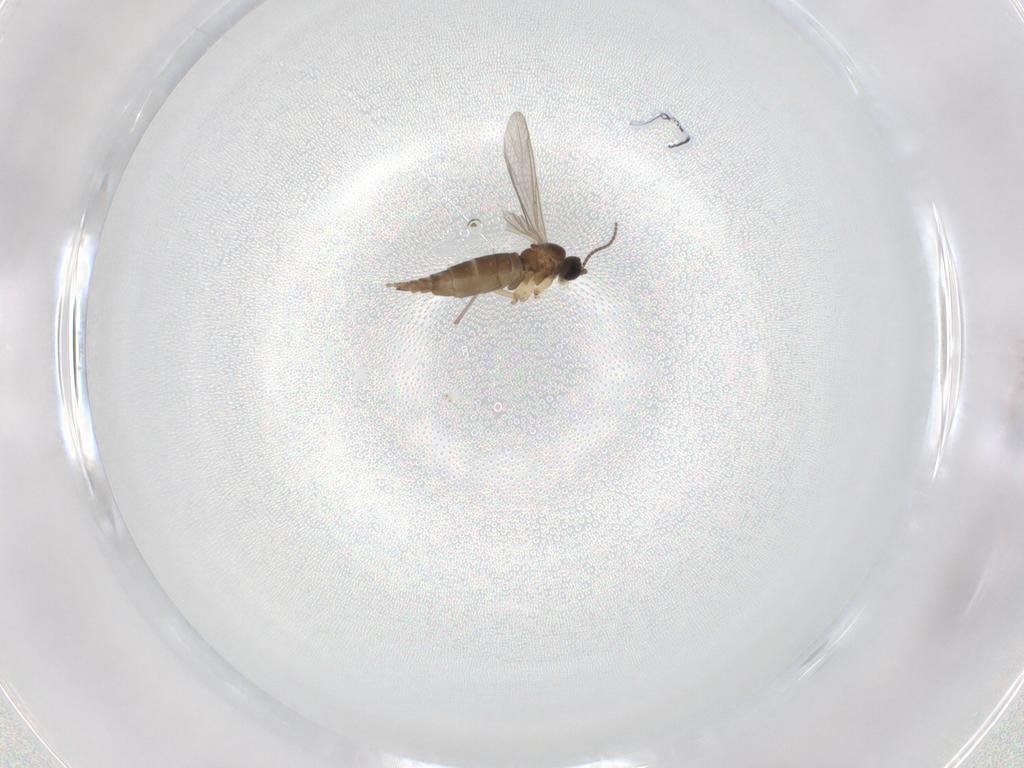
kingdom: Animalia
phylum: Arthropoda
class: Insecta
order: Diptera
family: Sciaridae
